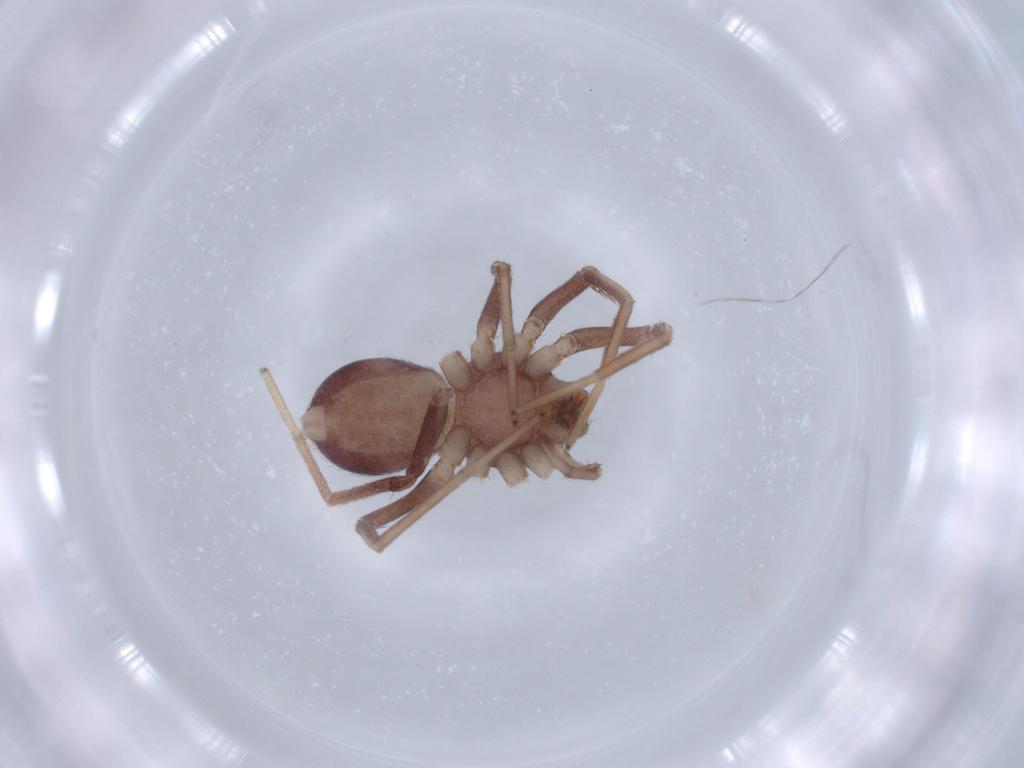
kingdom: Animalia
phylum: Arthropoda
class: Arachnida
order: Araneae
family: Corinnidae
